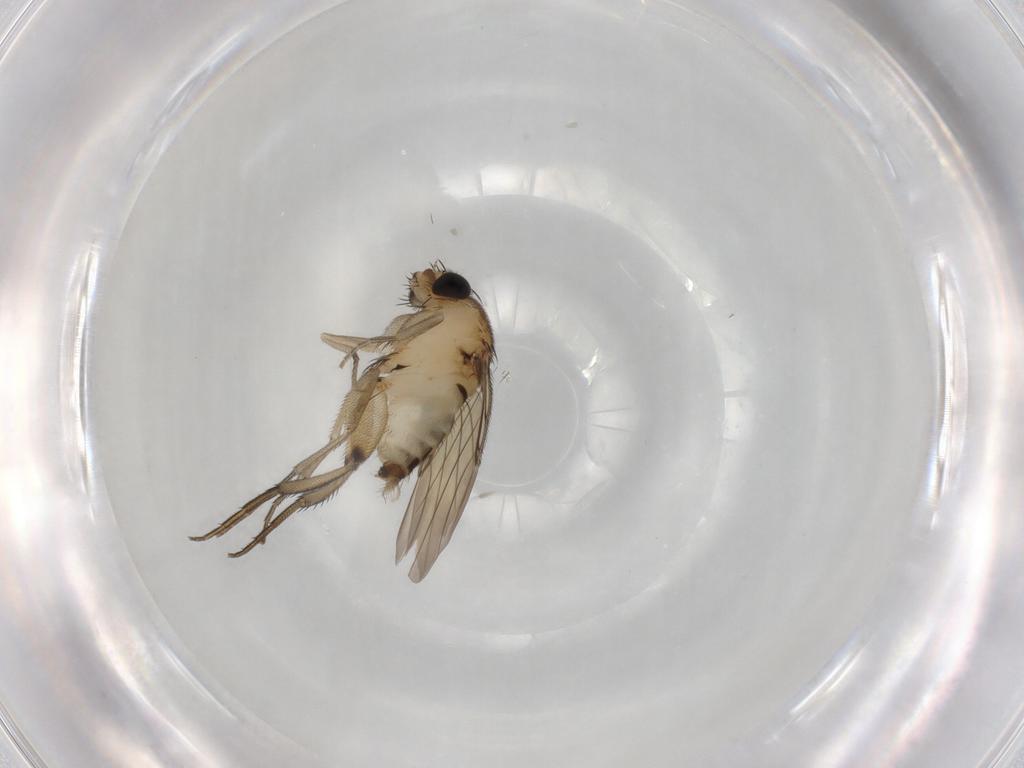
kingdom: Animalia
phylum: Arthropoda
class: Insecta
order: Diptera
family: Phoridae
